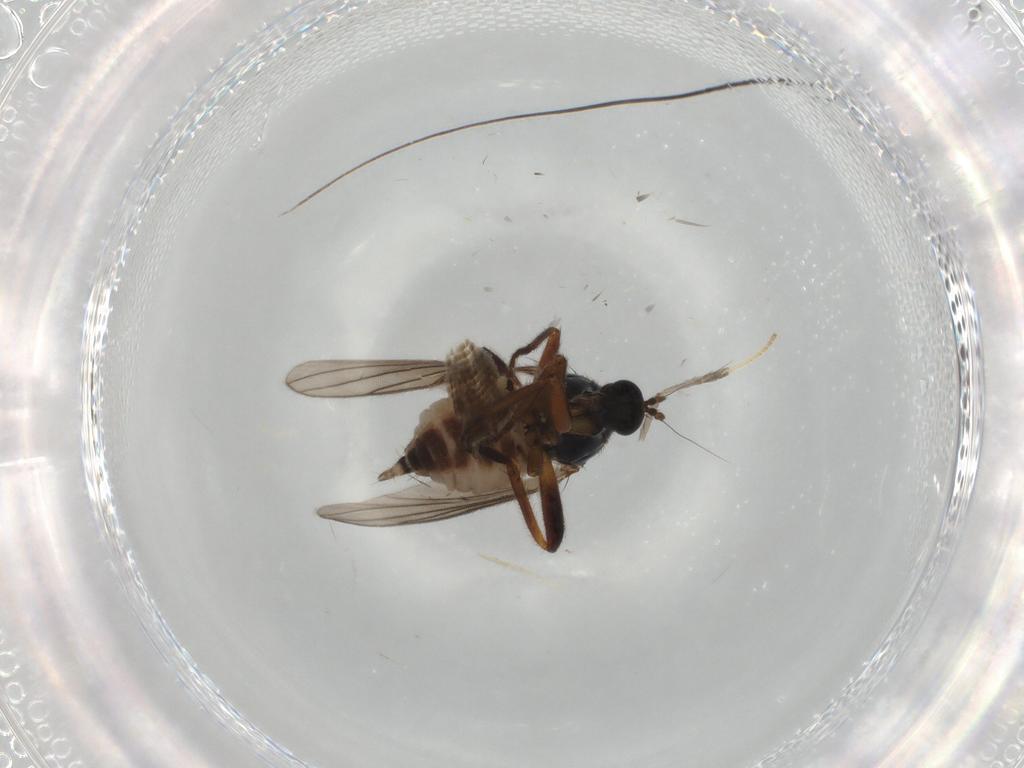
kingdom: Animalia
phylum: Arthropoda
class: Insecta
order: Diptera
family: Hybotidae
